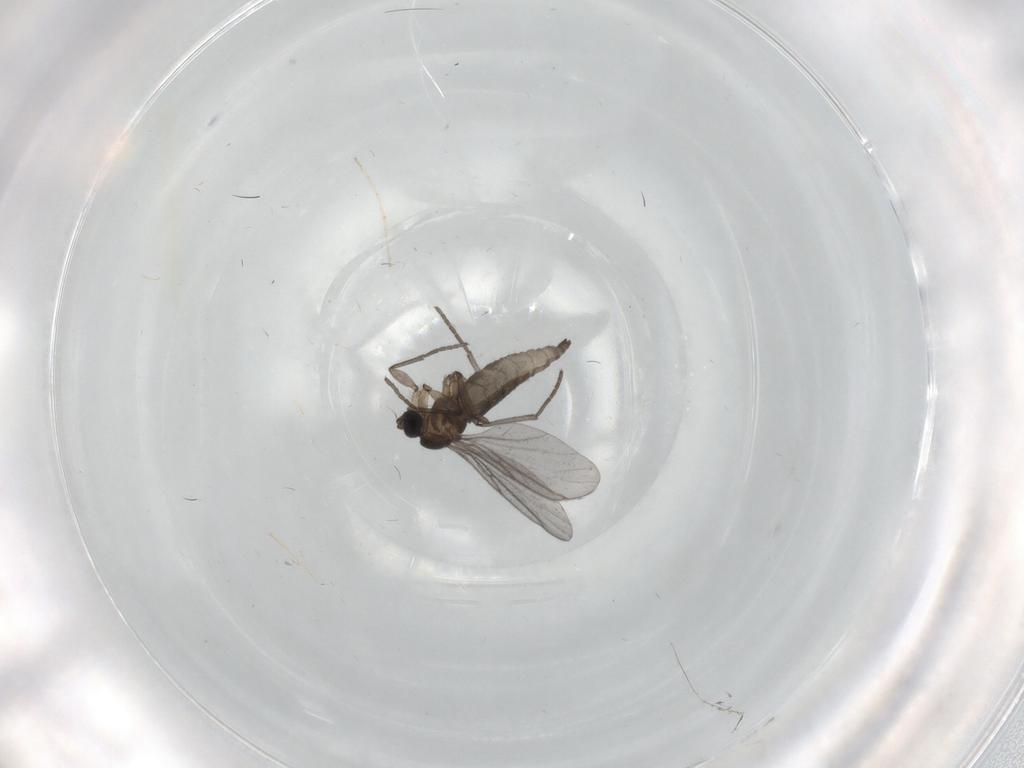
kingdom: Animalia
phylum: Arthropoda
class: Insecta
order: Diptera
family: Sciaridae
